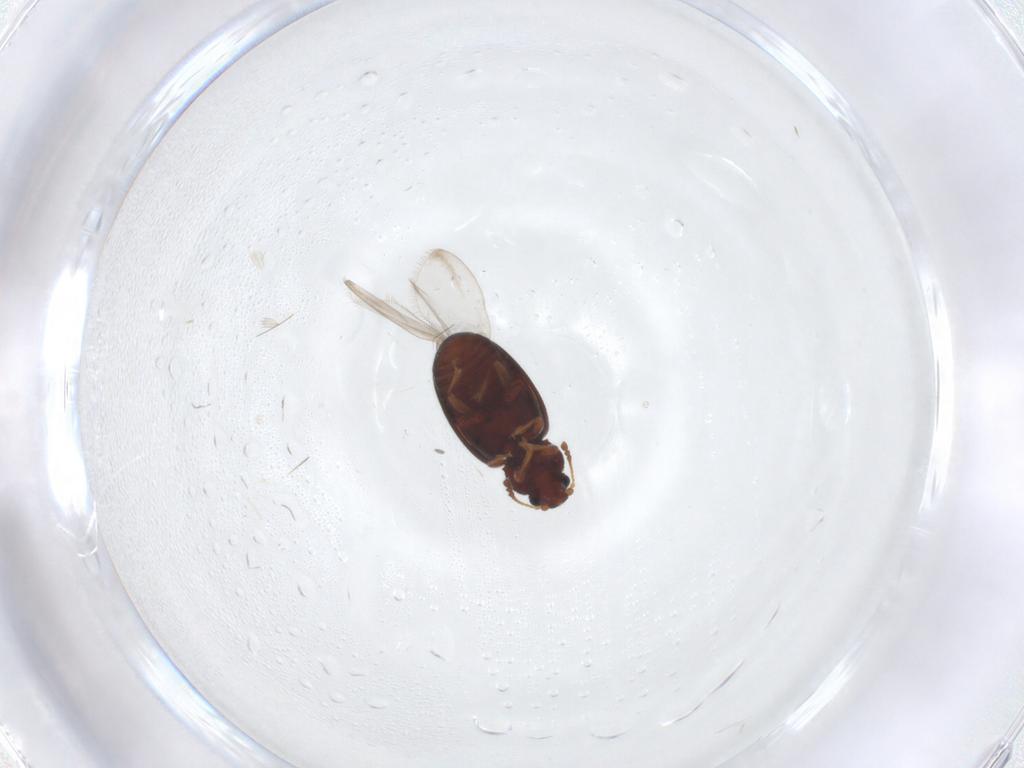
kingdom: Animalia
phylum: Arthropoda
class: Insecta
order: Coleoptera
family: Latridiidae
